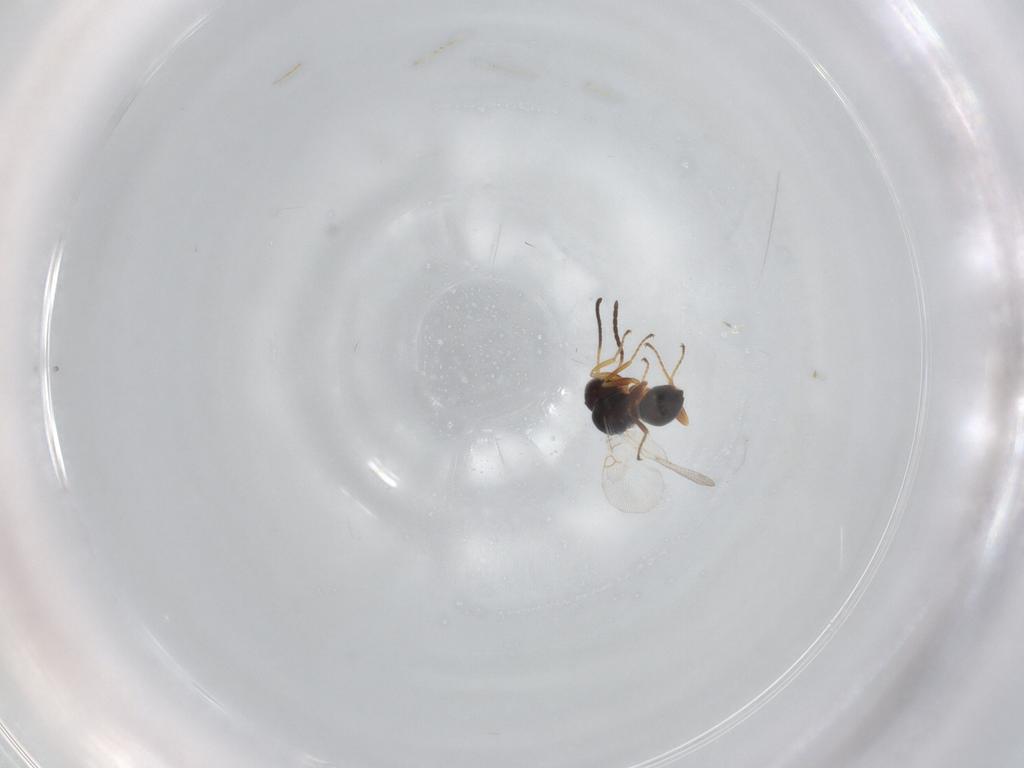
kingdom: Animalia
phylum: Arthropoda
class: Insecta
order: Hymenoptera
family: Figitidae
